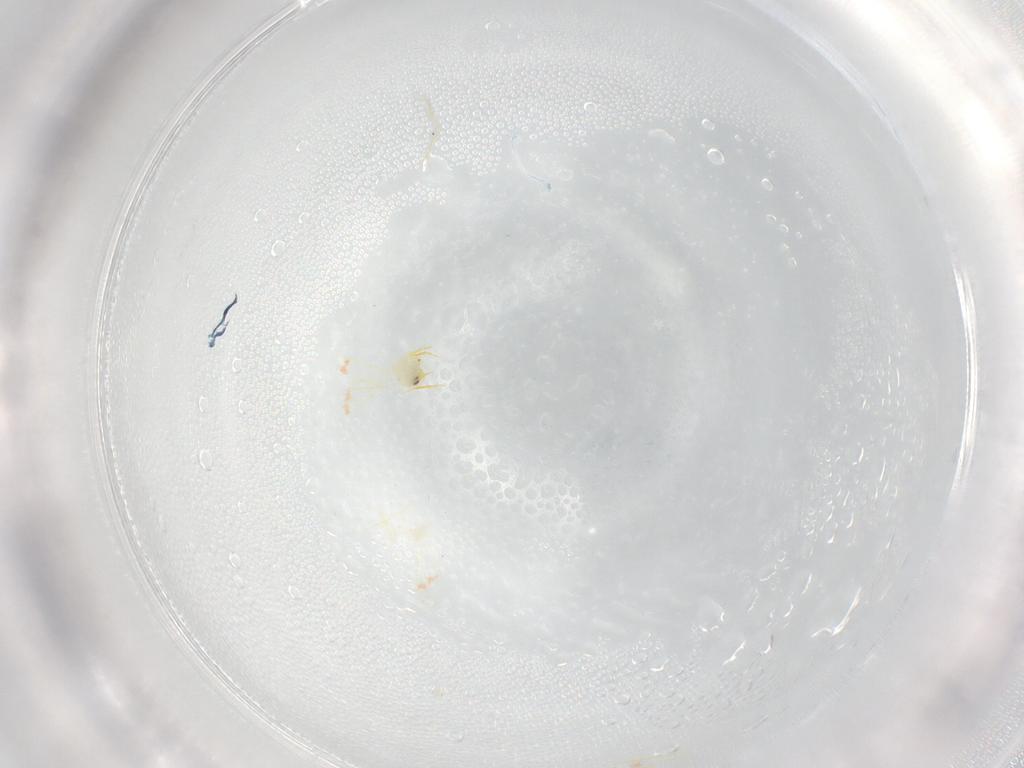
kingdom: Animalia
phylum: Arthropoda
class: Insecta
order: Hemiptera
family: Aleyrodidae
